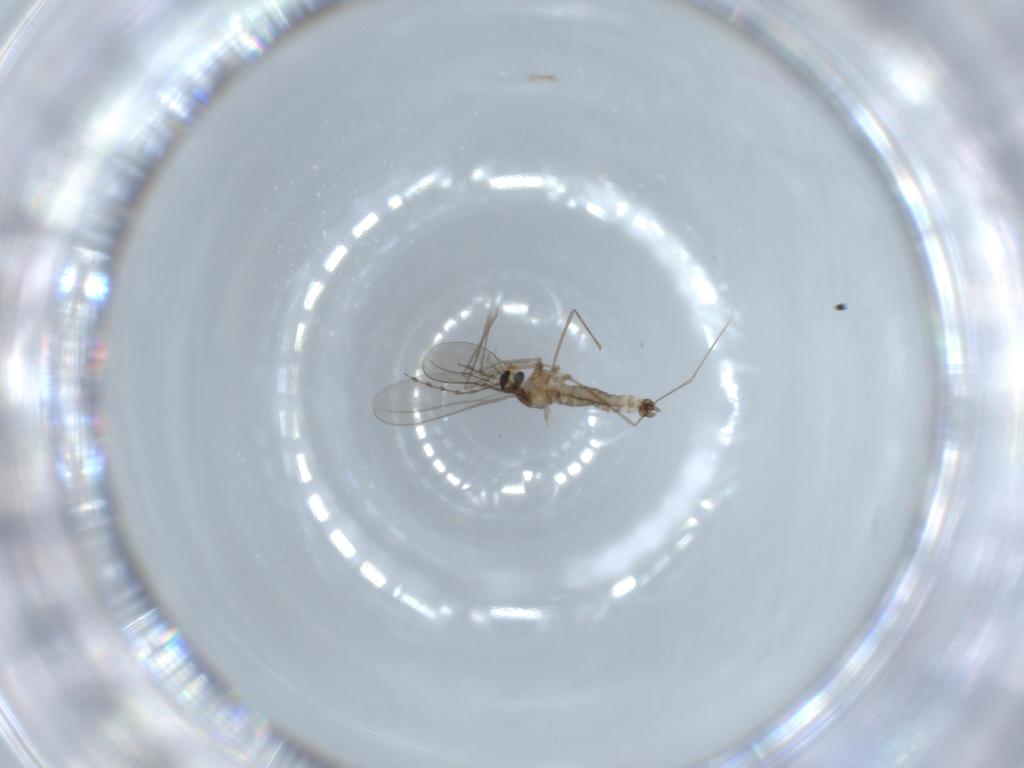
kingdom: Animalia
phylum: Arthropoda
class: Insecta
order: Diptera
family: Cecidomyiidae
